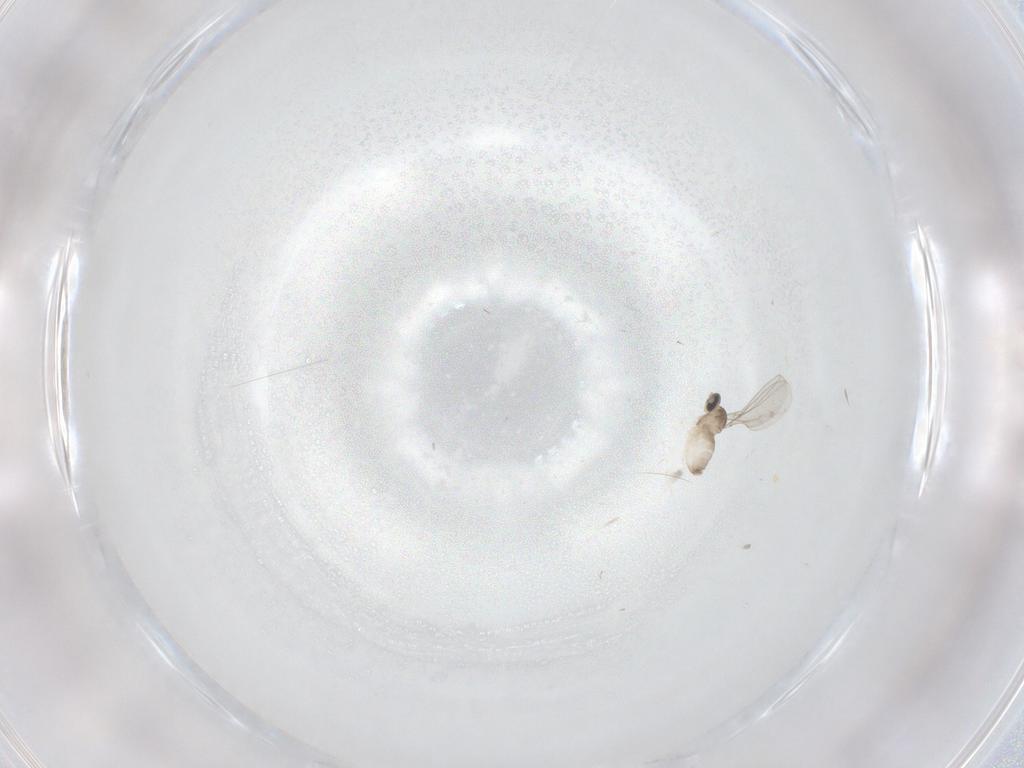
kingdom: Animalia
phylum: Arthropoda
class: Insecta
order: Diptera
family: Cecidomyiidae
